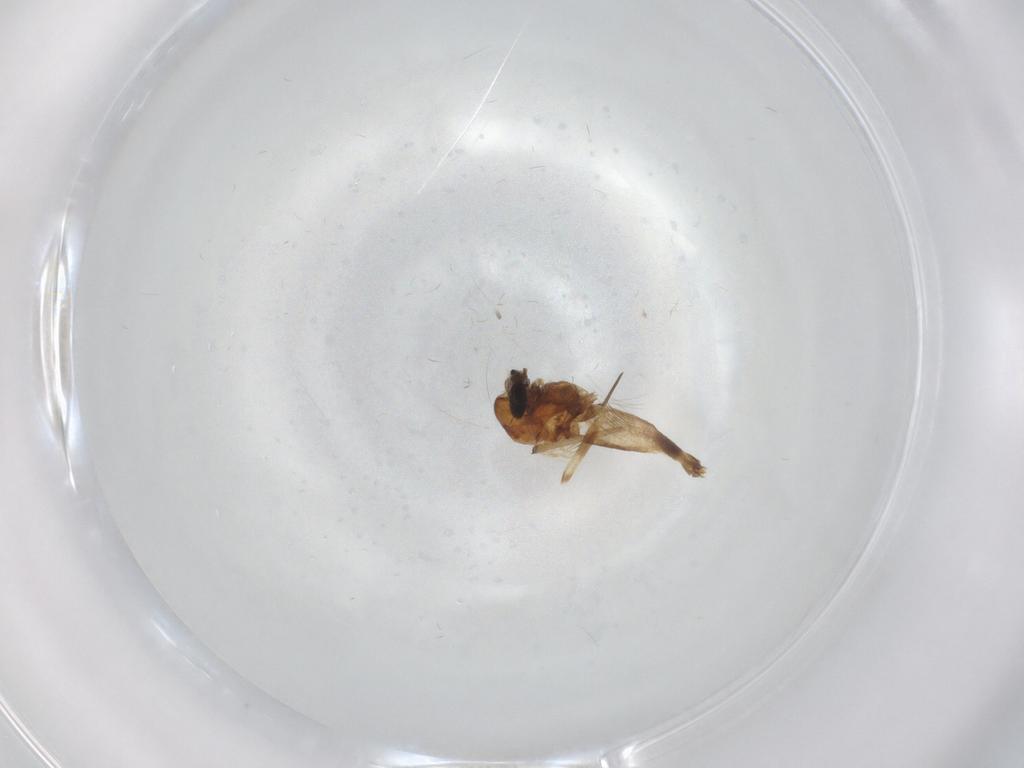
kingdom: Animalia
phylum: Arthropoda
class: Insecta
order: Diptera
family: Chironomidae
